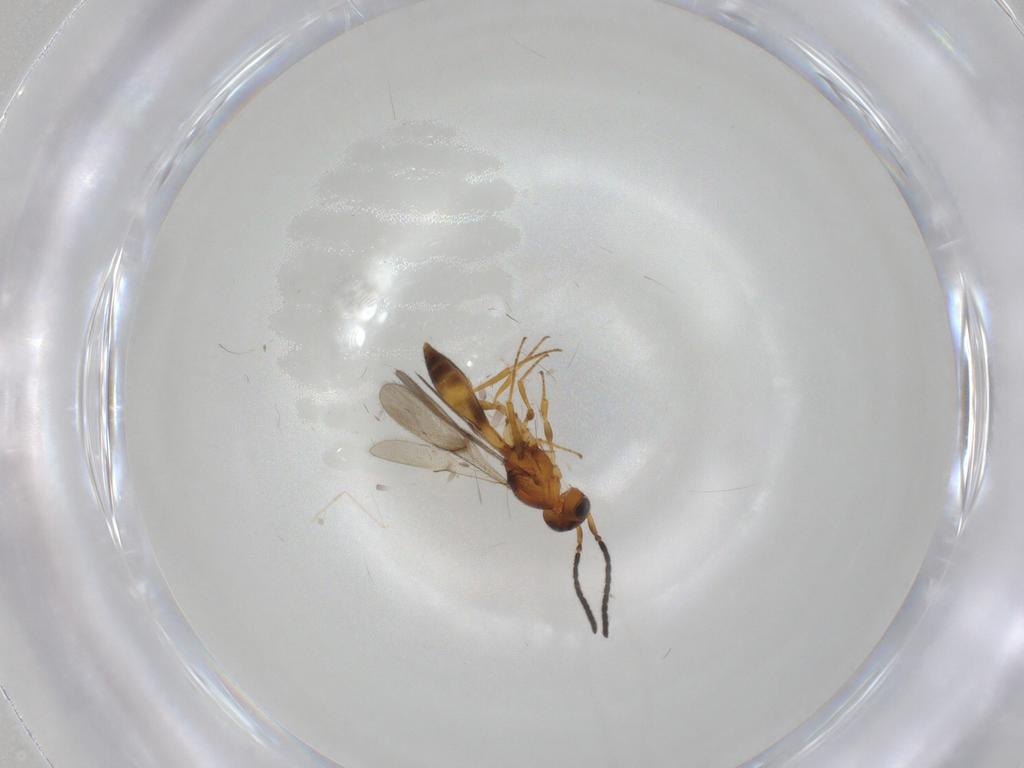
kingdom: Animalia
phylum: Arthropoda
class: Insecta
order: Hymenoptera
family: Scelionidae
